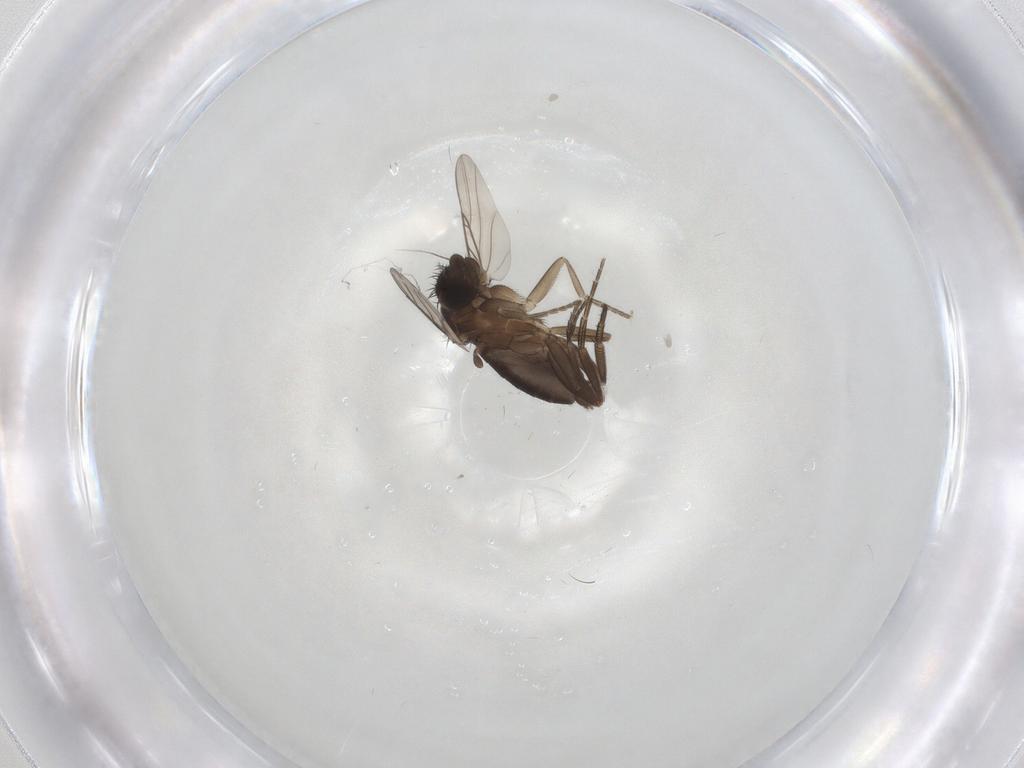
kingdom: Animalia
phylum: Arthropoda
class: Insecta
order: Diptera
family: Phoridae
